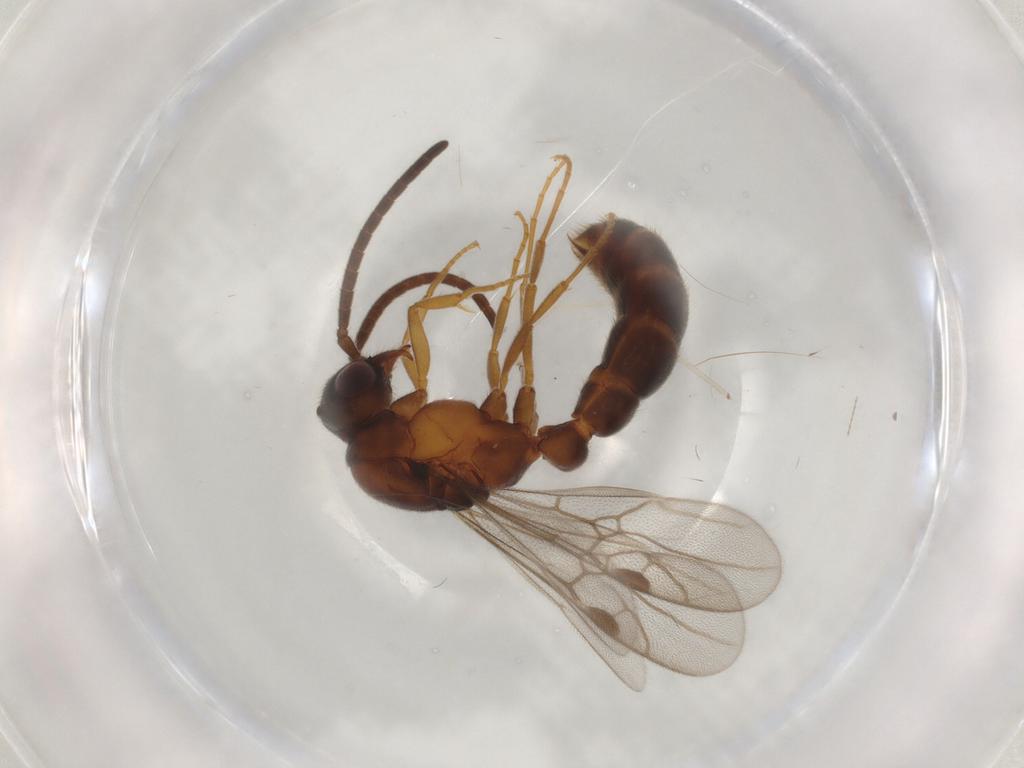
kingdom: Animalia
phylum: Arthropoda
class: Insecta
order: Hymenoptera
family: Formicidae
